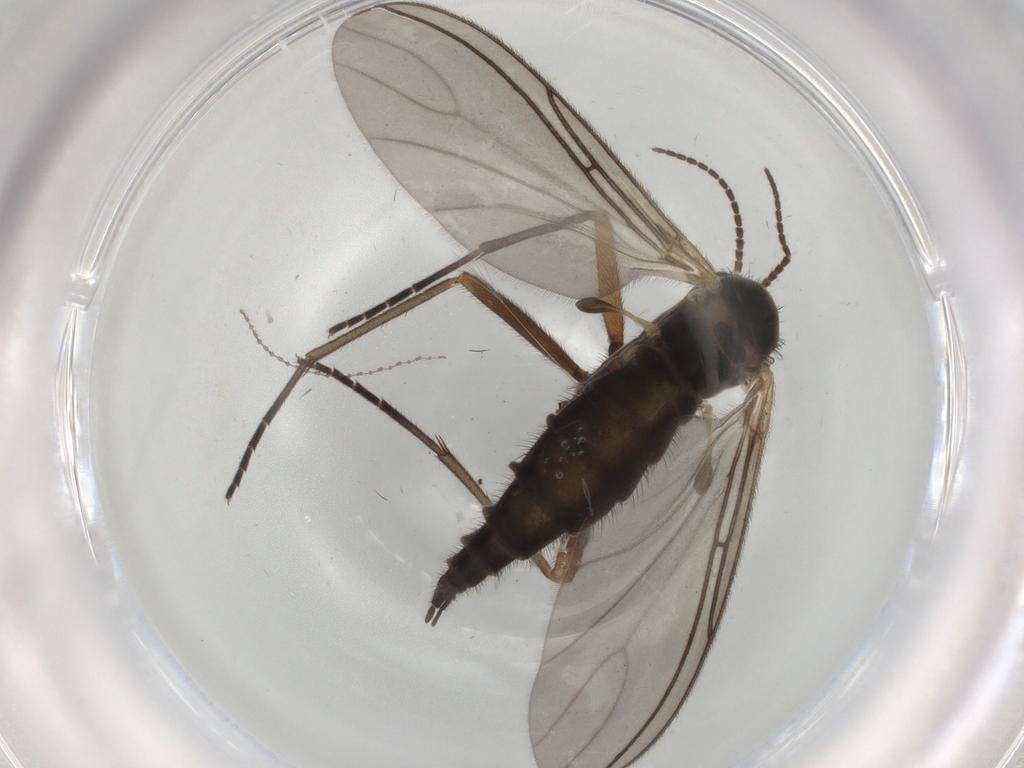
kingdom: Animalia
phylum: Arthropoda
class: Insecta
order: Diptera
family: Sciaridae
